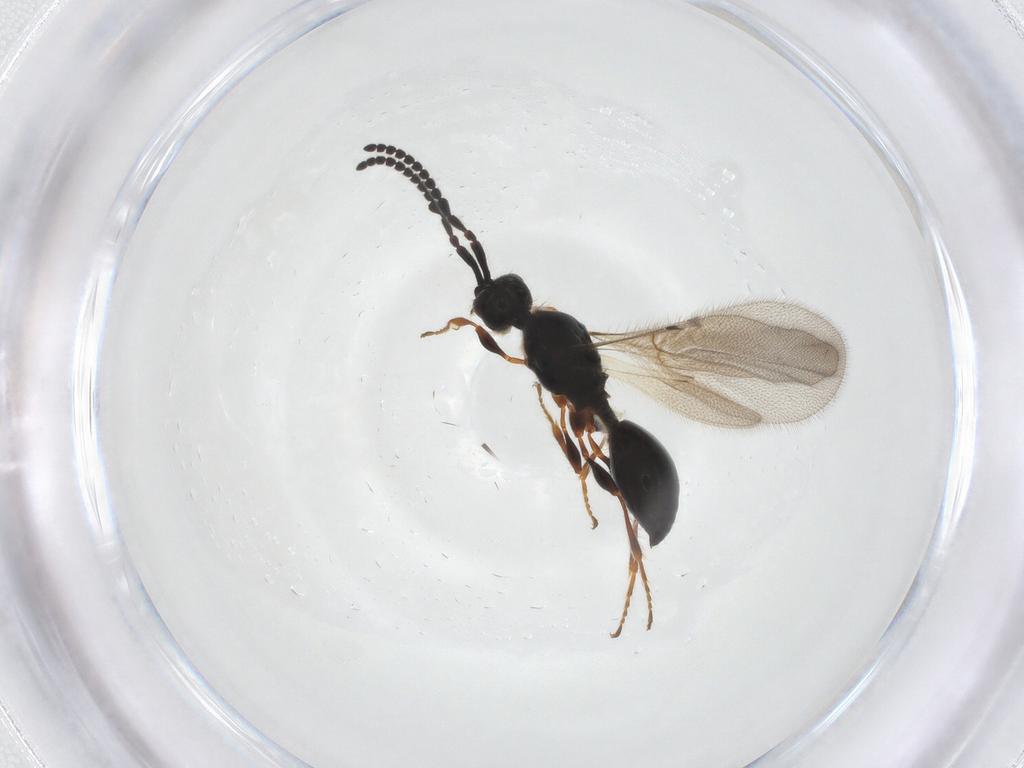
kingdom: Animalia
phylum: Arthropoda
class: Insecta
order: Hymenoptera
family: Diapriidae
